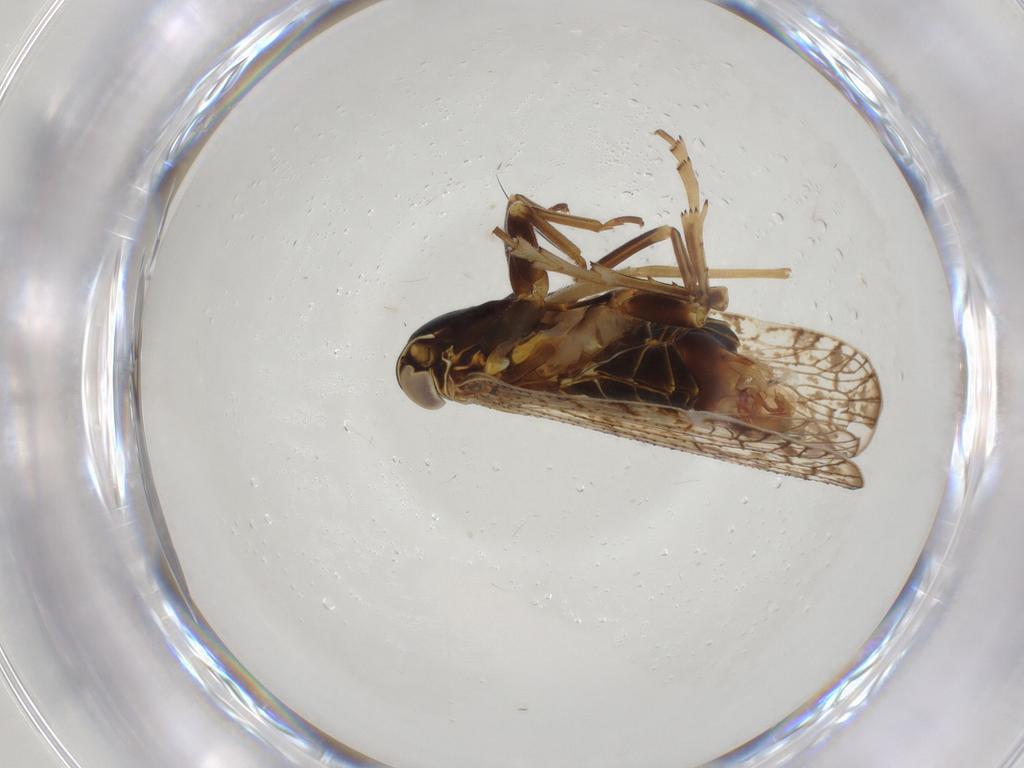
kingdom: Animalia
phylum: Arthropoda
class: Insecta
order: Hemiptera
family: Cixiidae
